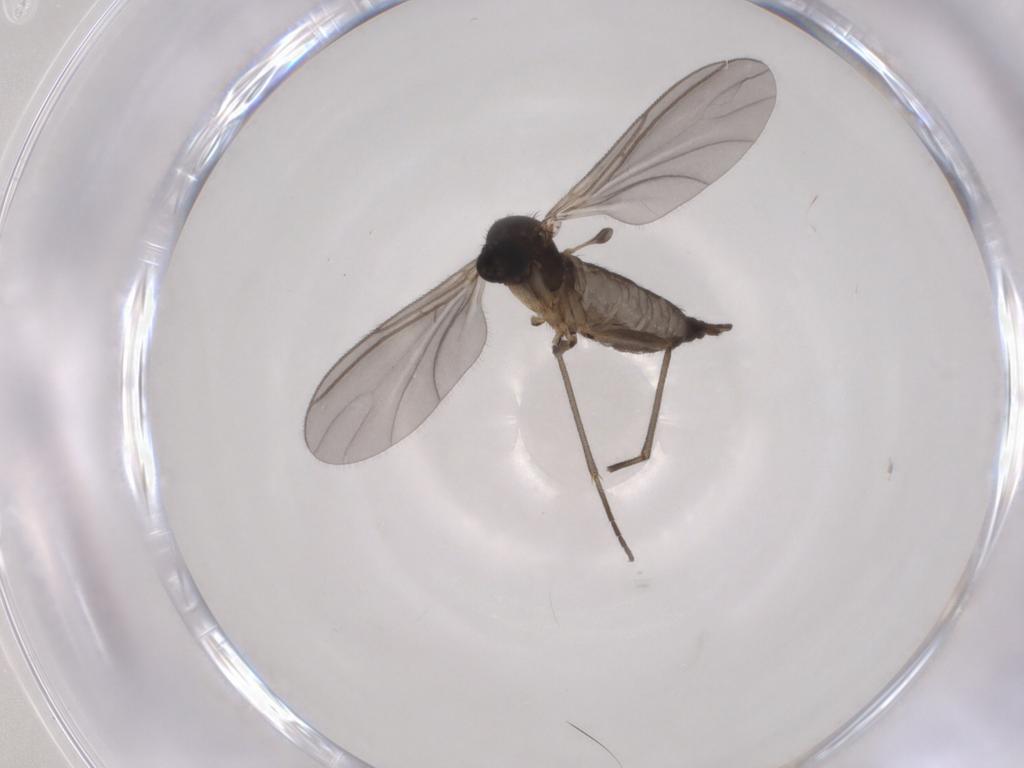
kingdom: Animalia
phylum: Arthropoda
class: Insecta
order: Diptera
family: Sciaridae
